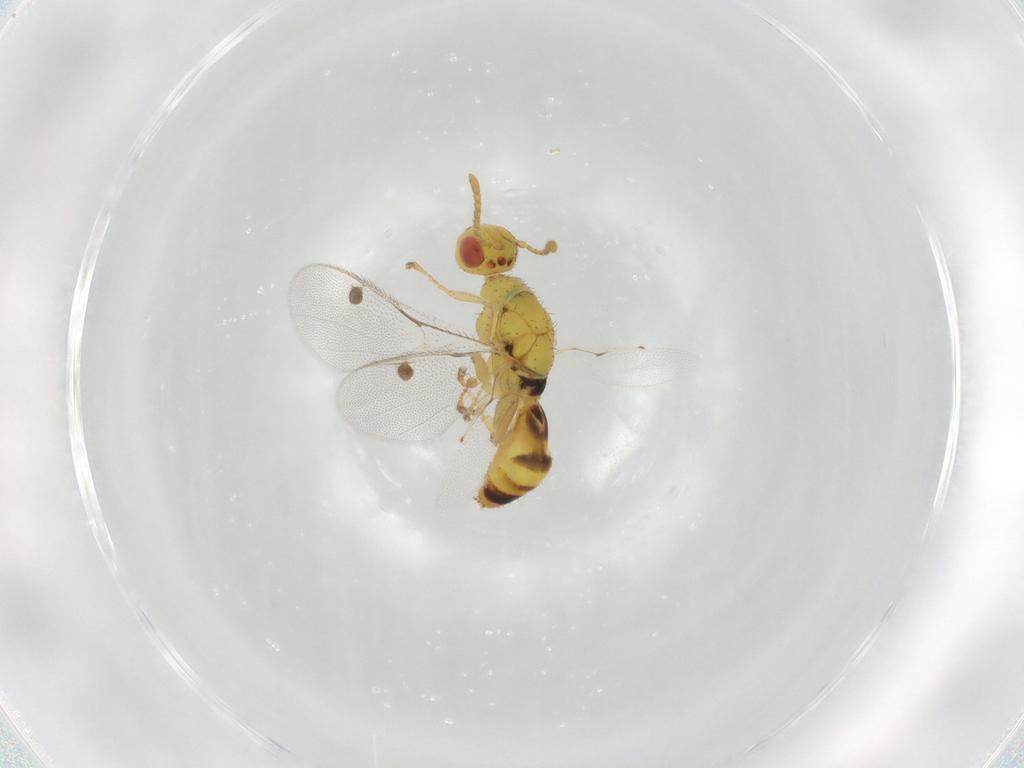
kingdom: Animalia
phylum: Arthropoda
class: Insecta
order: Hymenoptera
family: Megastigmidae
